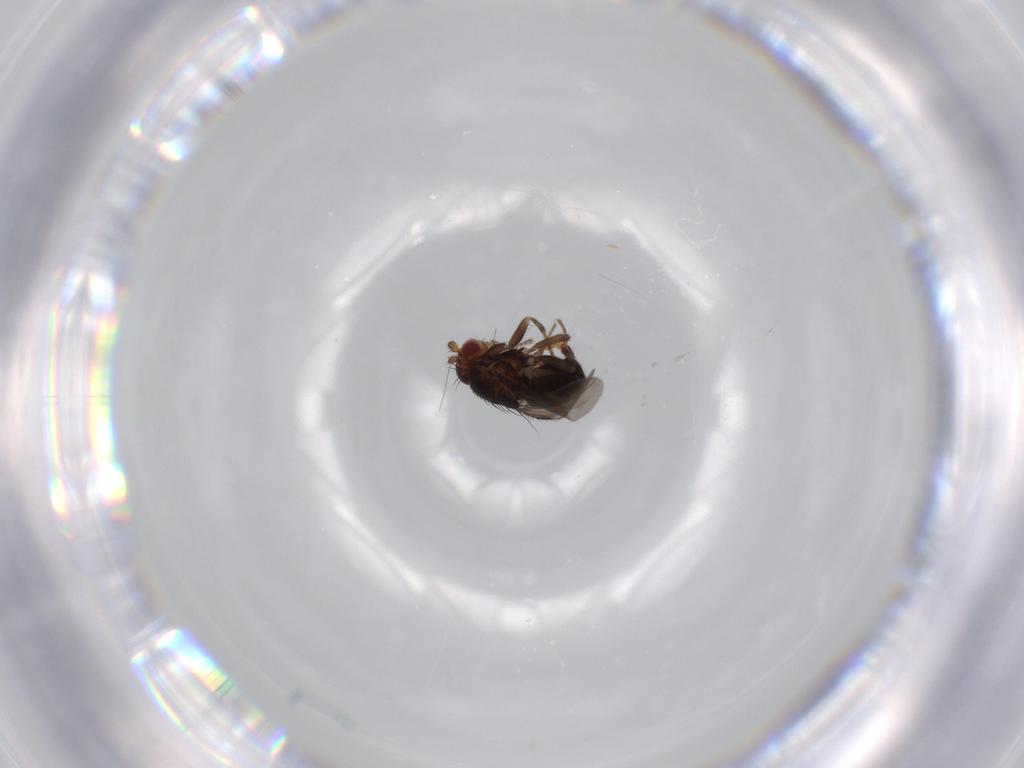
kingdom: Animalia
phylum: Arthropoda
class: Insecta
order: Diptera
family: Sphaeroceridae
